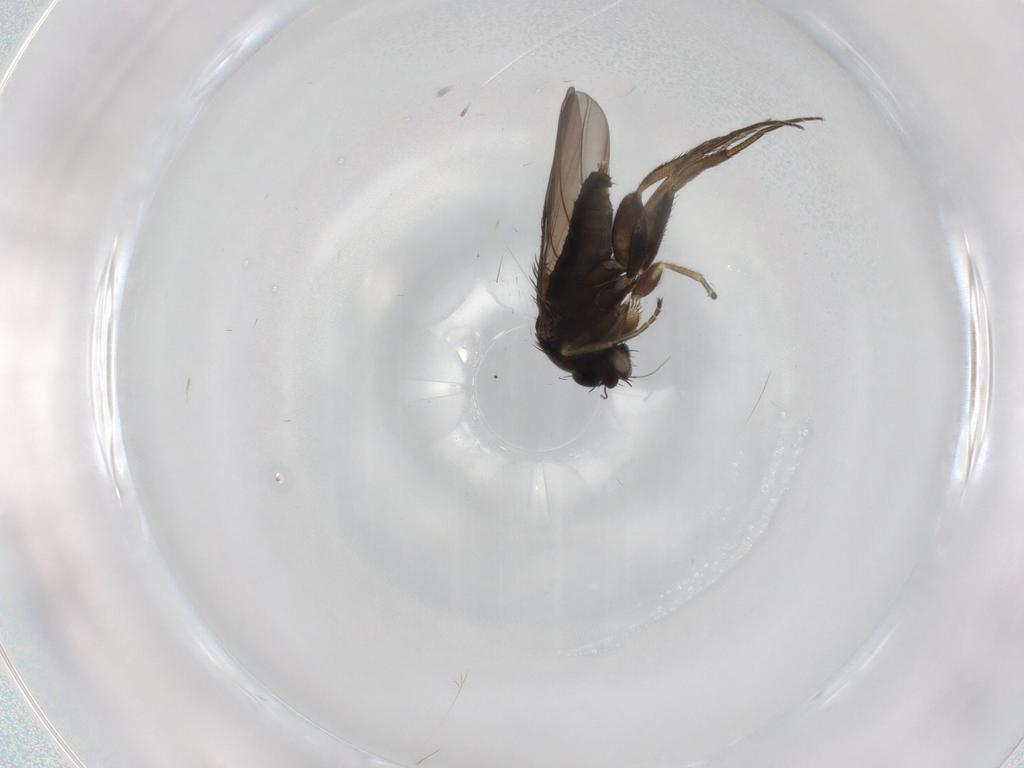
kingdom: Animalia
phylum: Arthropoda
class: Insecta
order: Diptera
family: Phoridae
